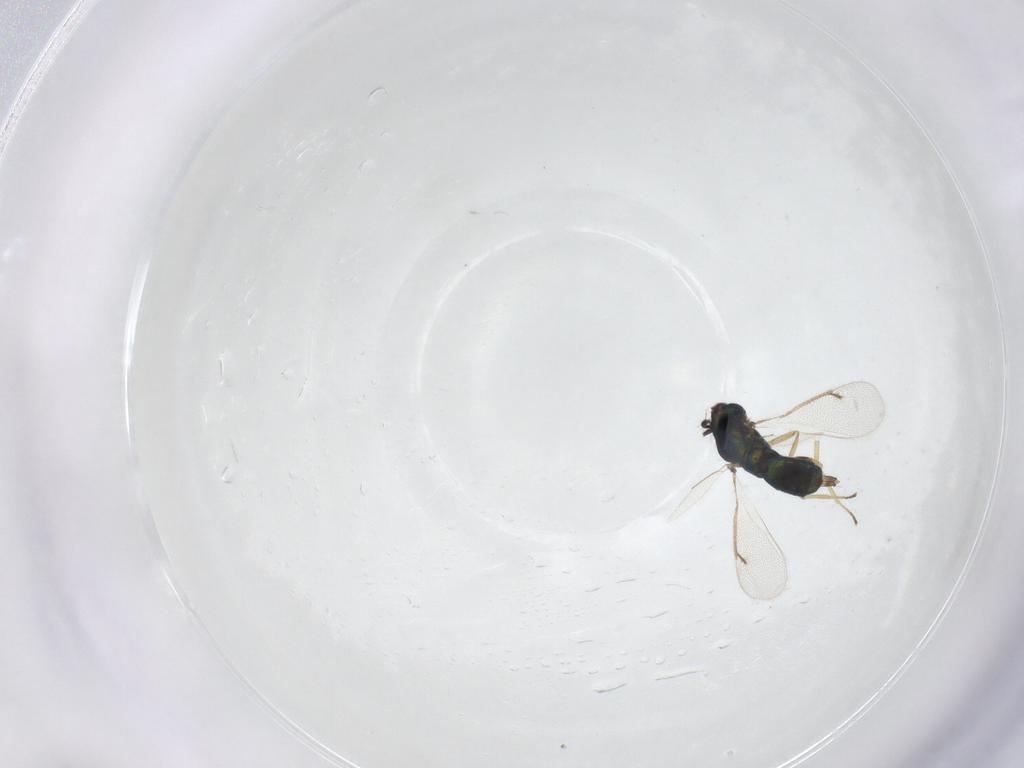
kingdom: Animalia
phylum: Arthropoda
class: Insecta
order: Hymenoptera
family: Eulophidae
